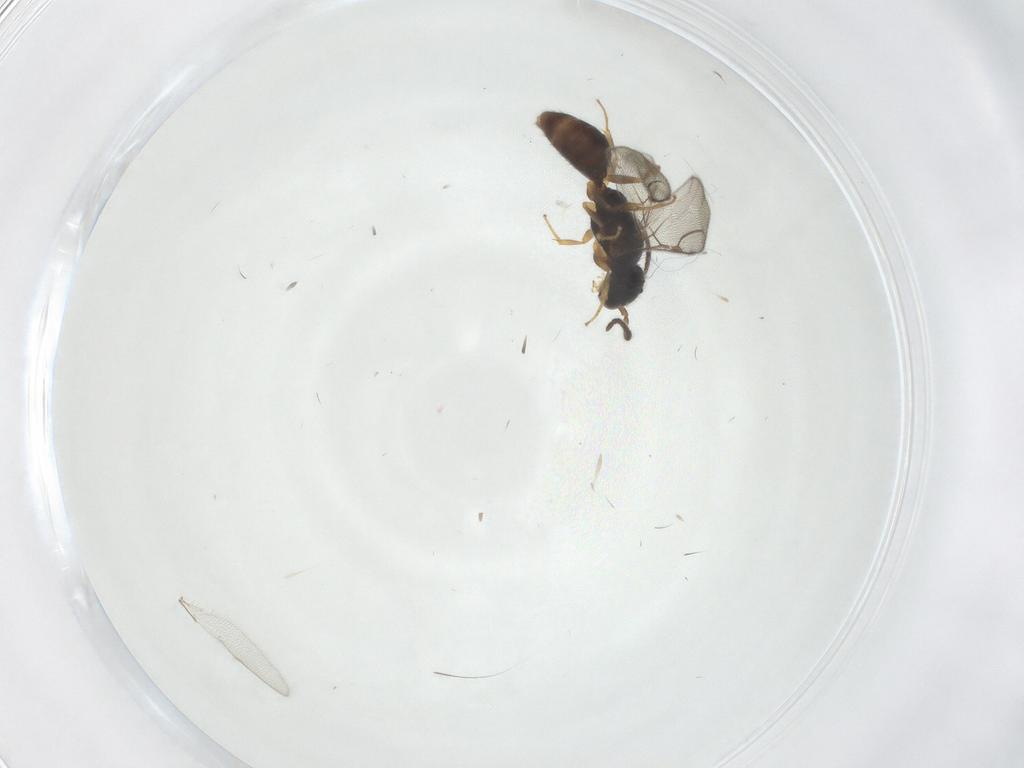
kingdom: Animalia
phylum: Arthropoda
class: Insecta
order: Hymenoptera
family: Bethylidae
